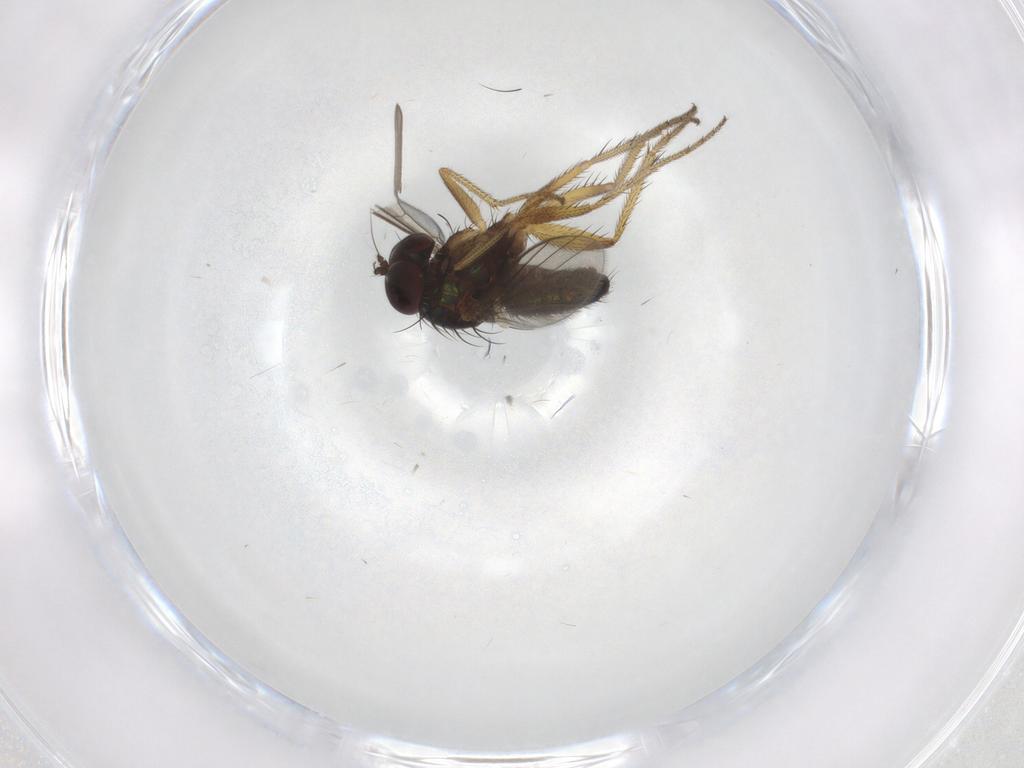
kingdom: Animalia
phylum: Arthropoda
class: Insecta
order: Diptera
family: Dolichopodidae
